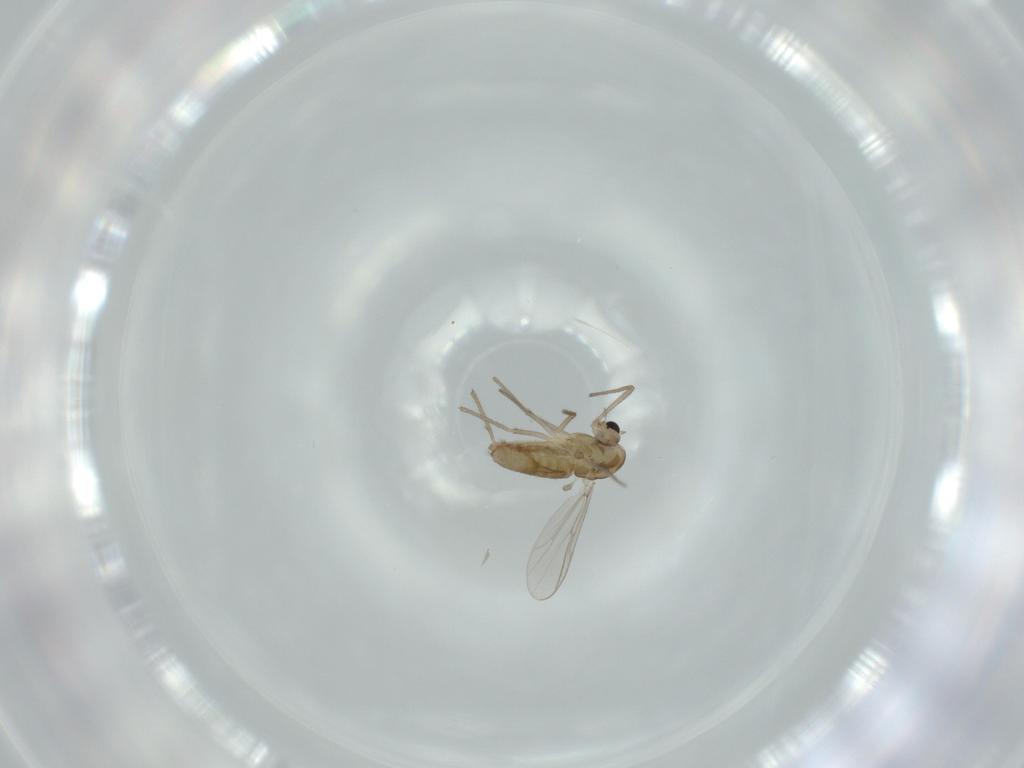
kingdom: Animalia
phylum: Arthropoda
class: Insecta
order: Diptera
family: Chironomidae
